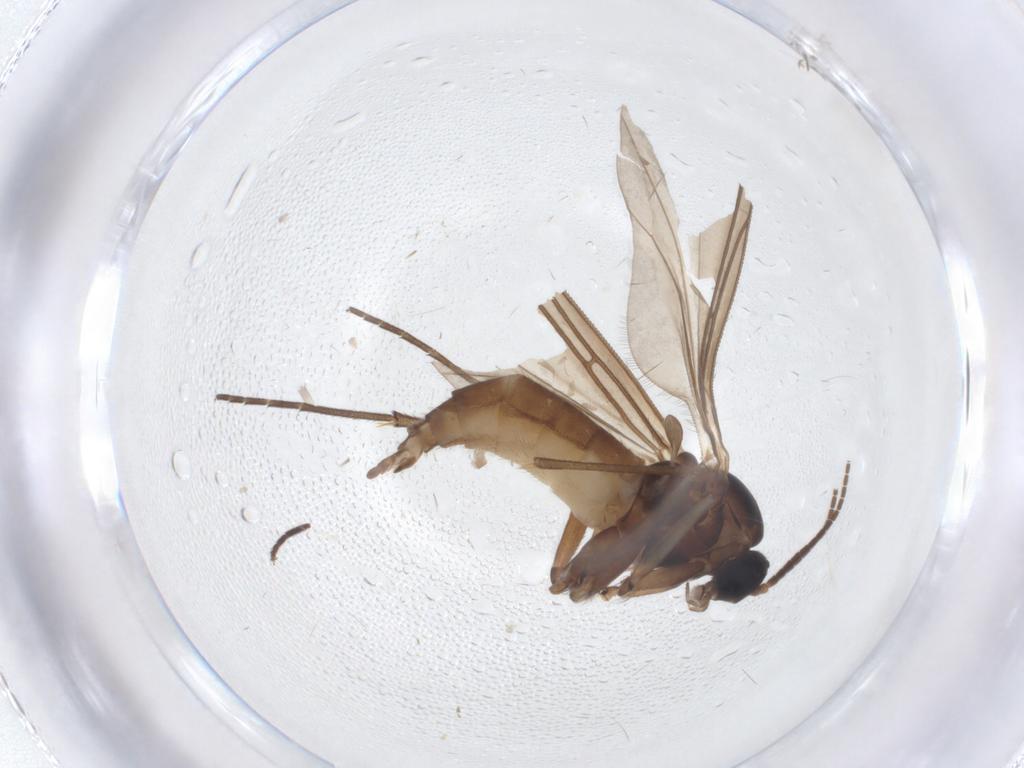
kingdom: Animalia
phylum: Arthropoda
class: Insecta
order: Diptera
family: Sciaridae
